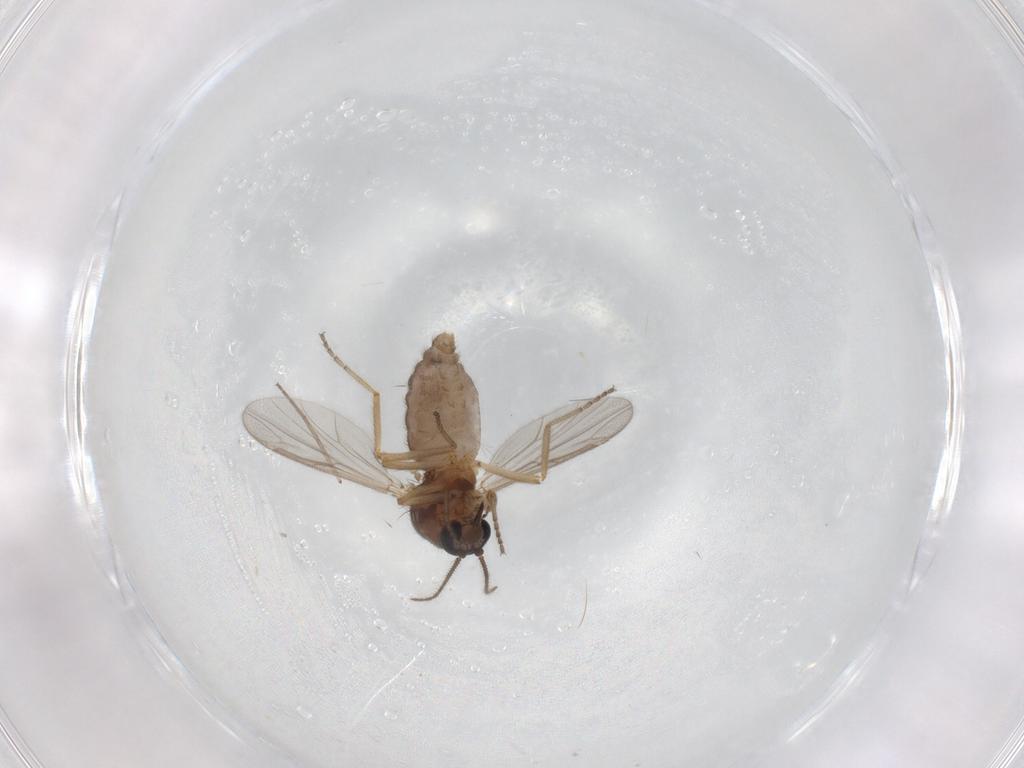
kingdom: Animalia
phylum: Arthropoda
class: Insecta
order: Diptera
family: Ceratopogonidae
